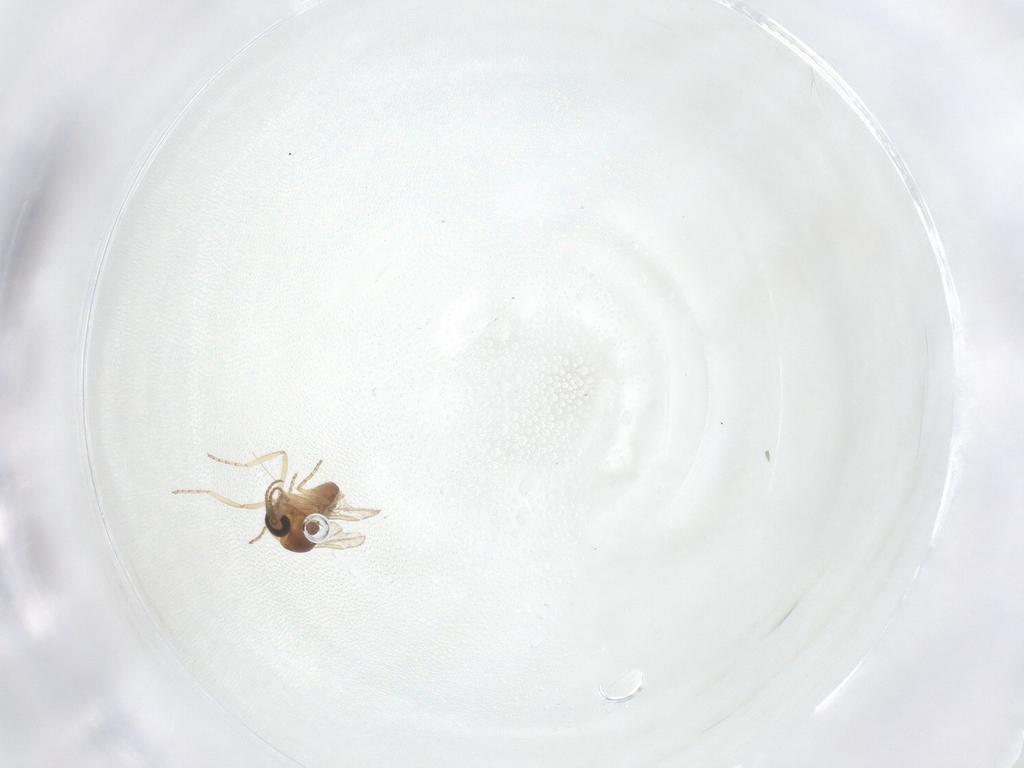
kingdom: Animalia
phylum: Arthropoda
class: Insecta
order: Diptera
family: Ceratopogonidae
